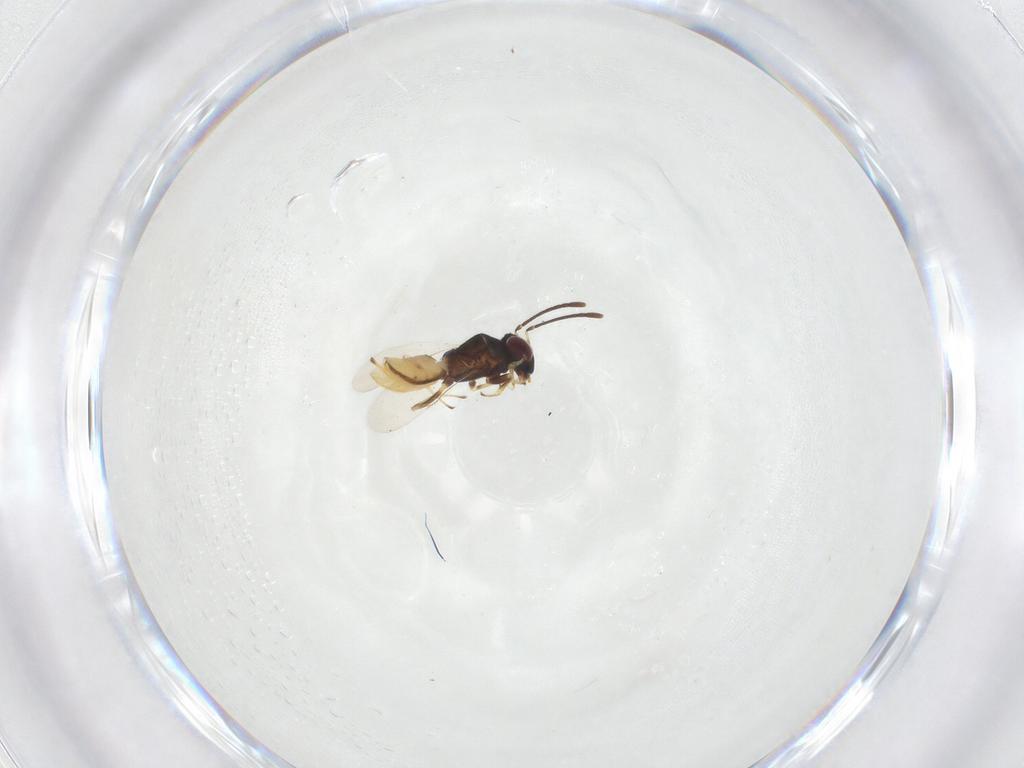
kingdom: Animalia
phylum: Arthropoda
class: Insecta
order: Hymenoptera
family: Encyrtidae
